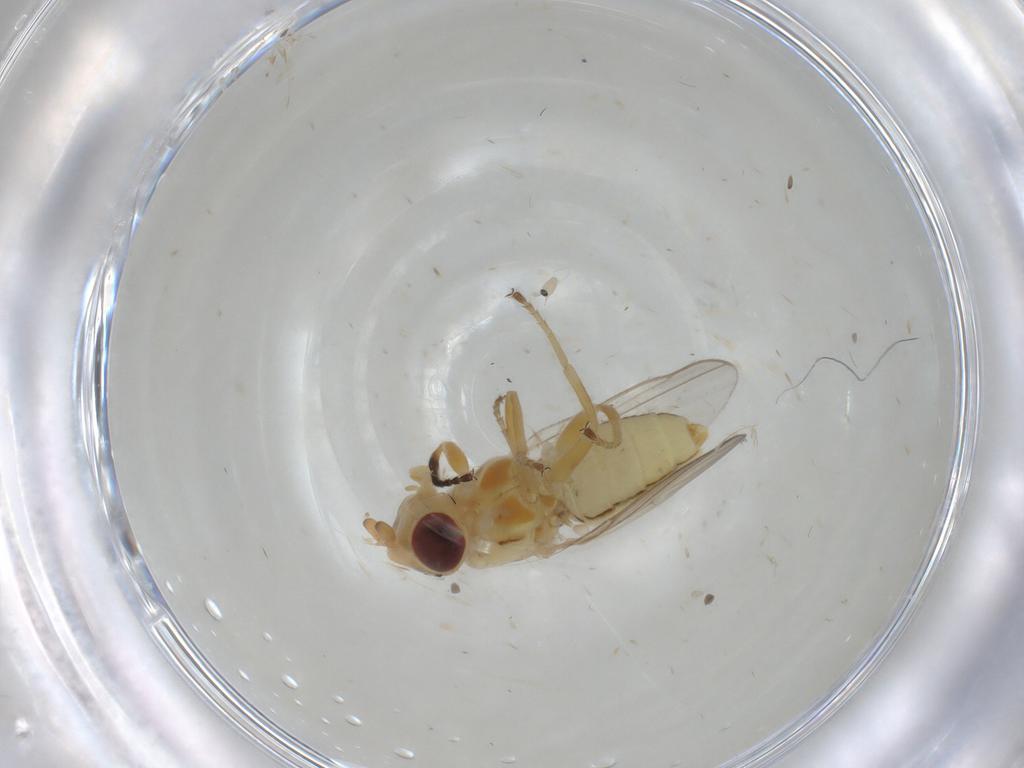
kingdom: Animalia
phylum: Arthropoda
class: Insecta
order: Diptera
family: Chloropidae
